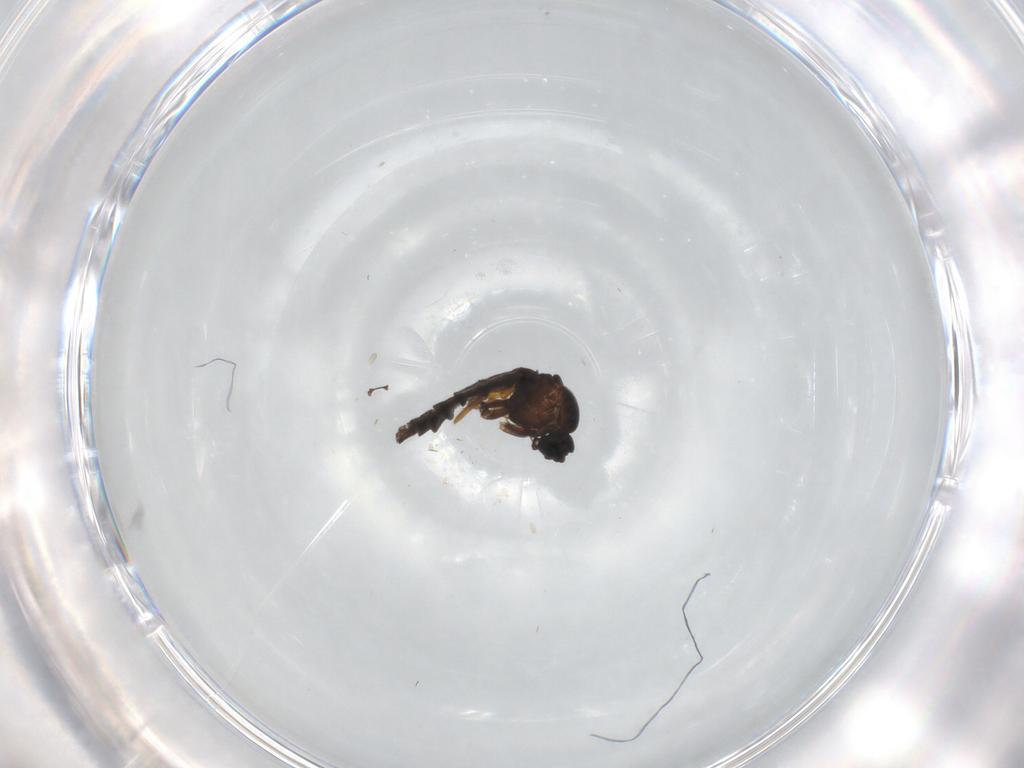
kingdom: Animalia
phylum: Arthropoda
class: Insecta
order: Diptera
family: Sciaridae
